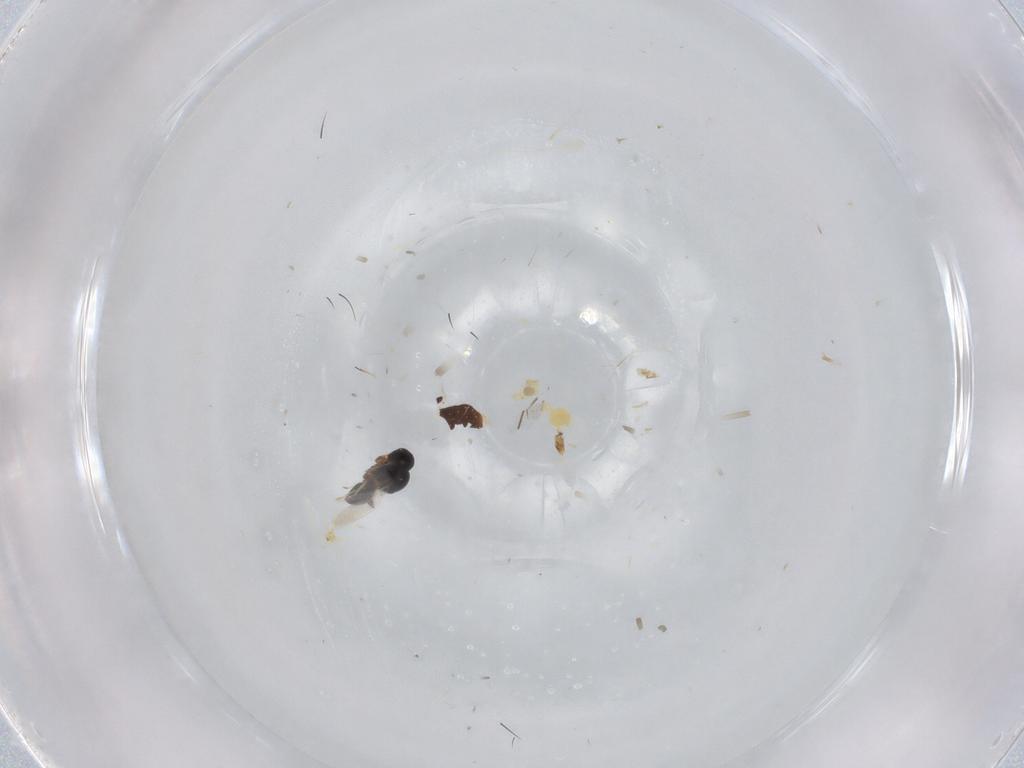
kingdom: Animalia
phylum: Arthropoda
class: Insecta
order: Hymenoptera
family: Platygastridae
